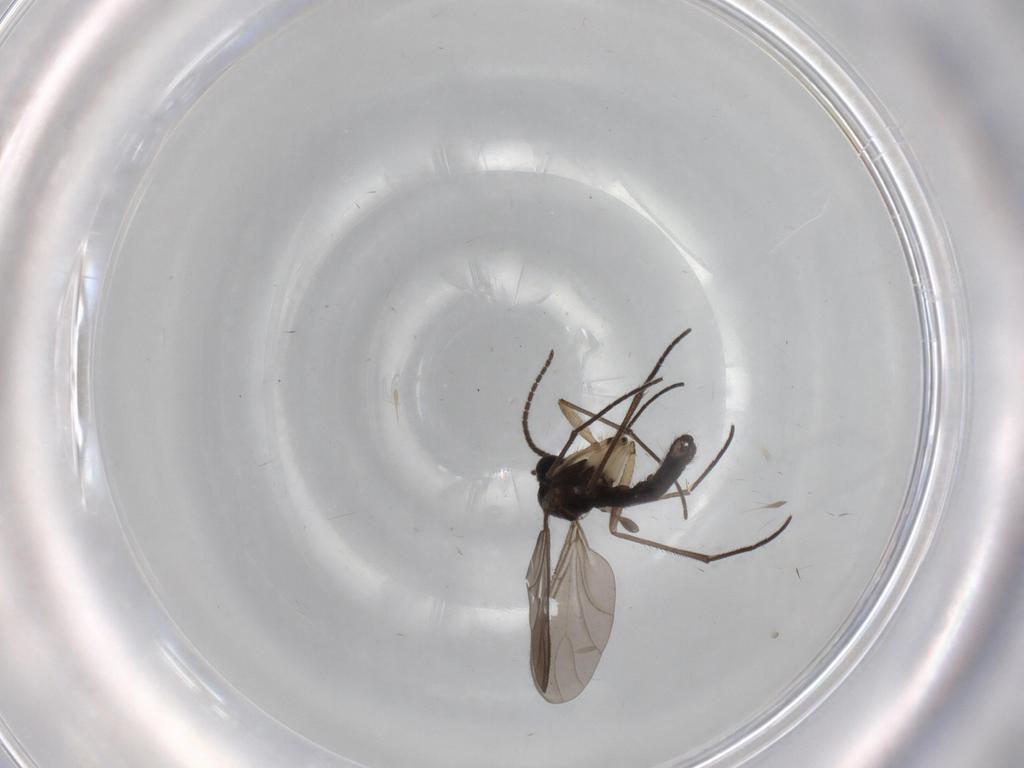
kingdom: Animalia
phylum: Arthropoda
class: Insecta
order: Diptera
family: Sciaridae
